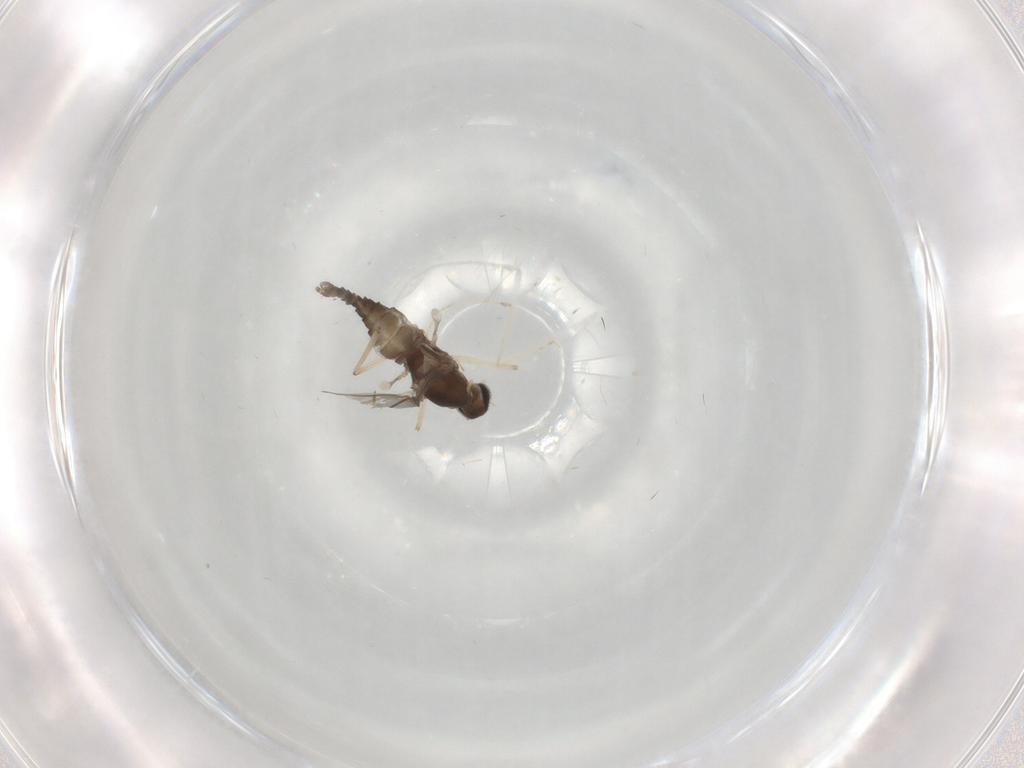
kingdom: Animalia
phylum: Arthropoda
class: Insecta
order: Diptera
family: Cecidomyiidae
